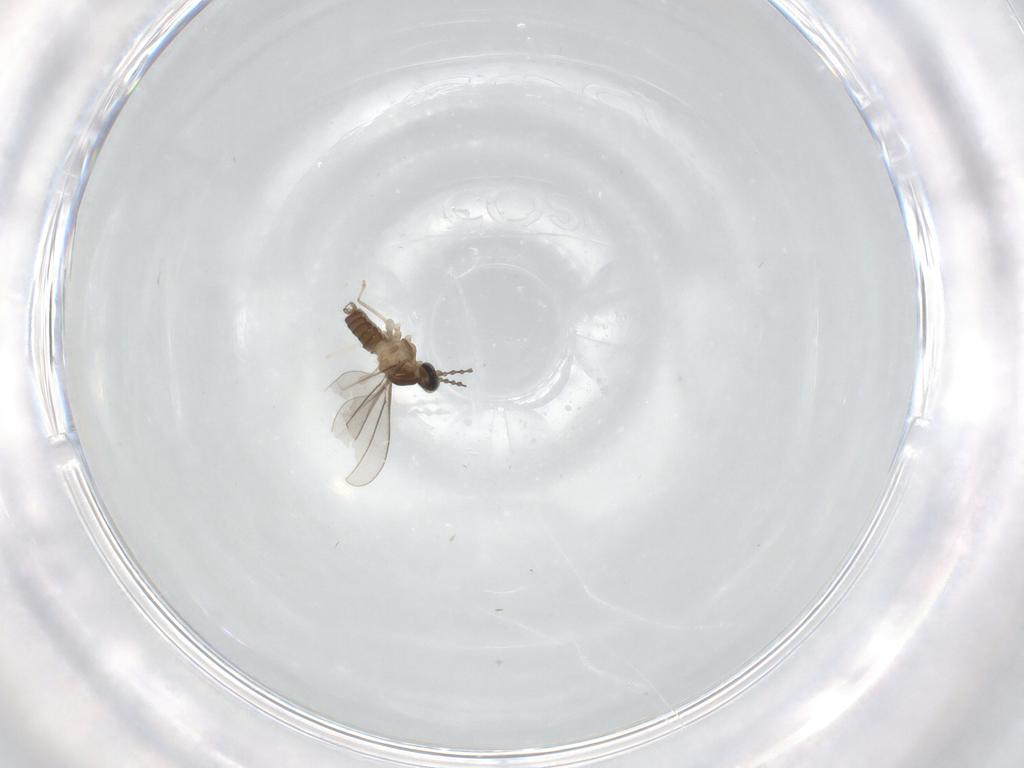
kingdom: Animalia
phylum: Arthropoda
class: Insecta
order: Diptera
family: Cecidomyiidae
